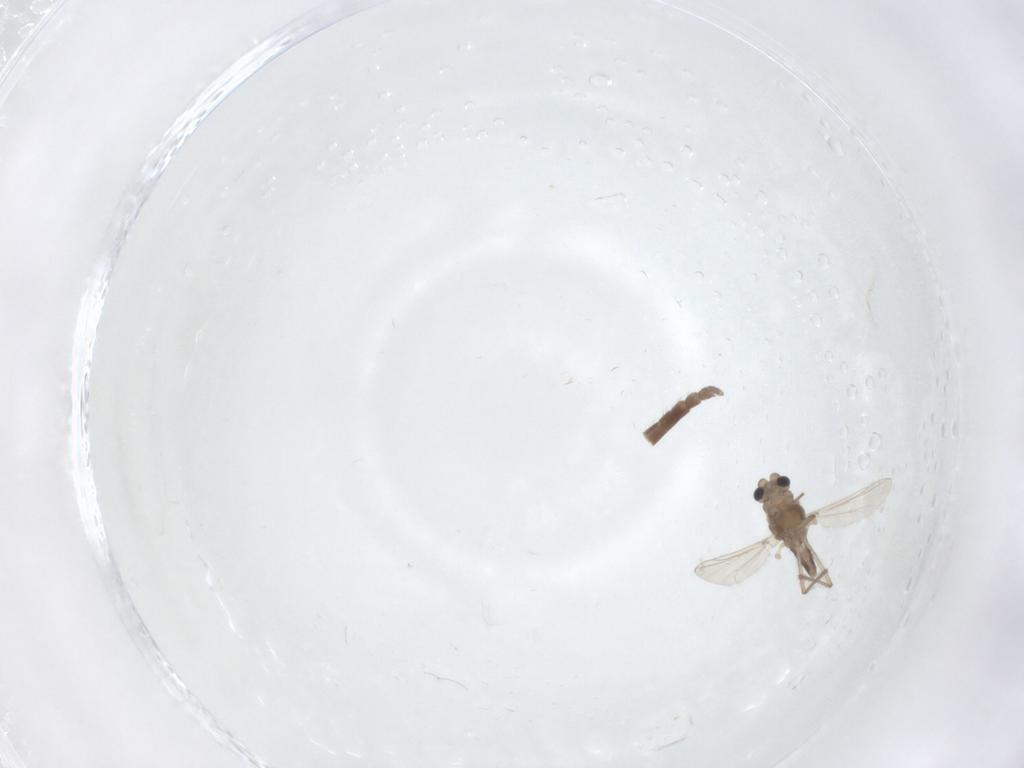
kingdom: Animalia
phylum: Arthropoda
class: Insecta
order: Diptera
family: Chironomidae
